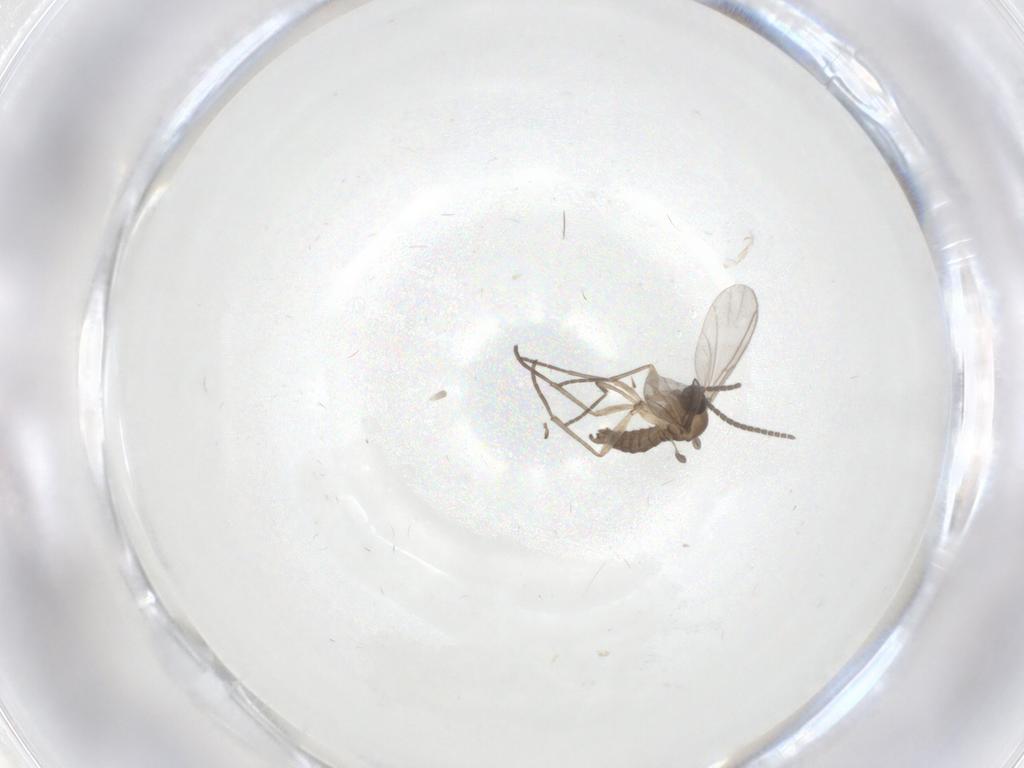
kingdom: Animalia
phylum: Arthropoda
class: Insecta
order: Diptera
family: Sciaridae
